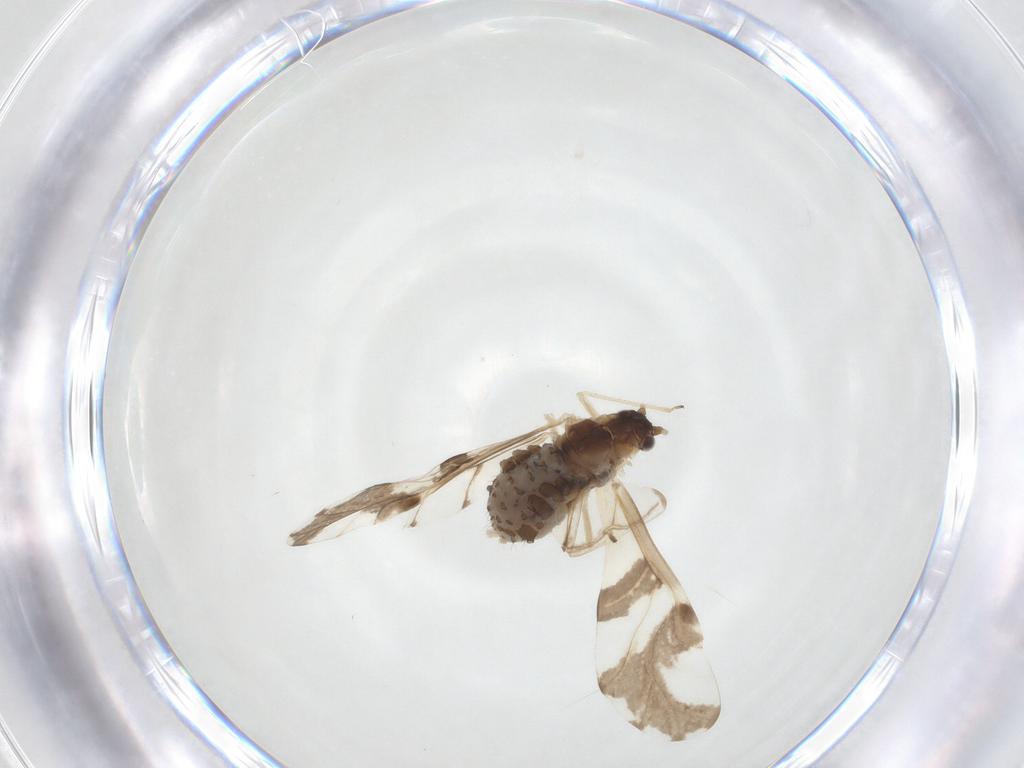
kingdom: Animalia
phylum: Arthropoda
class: Insecta
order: Hemiptera
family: Aphididae
